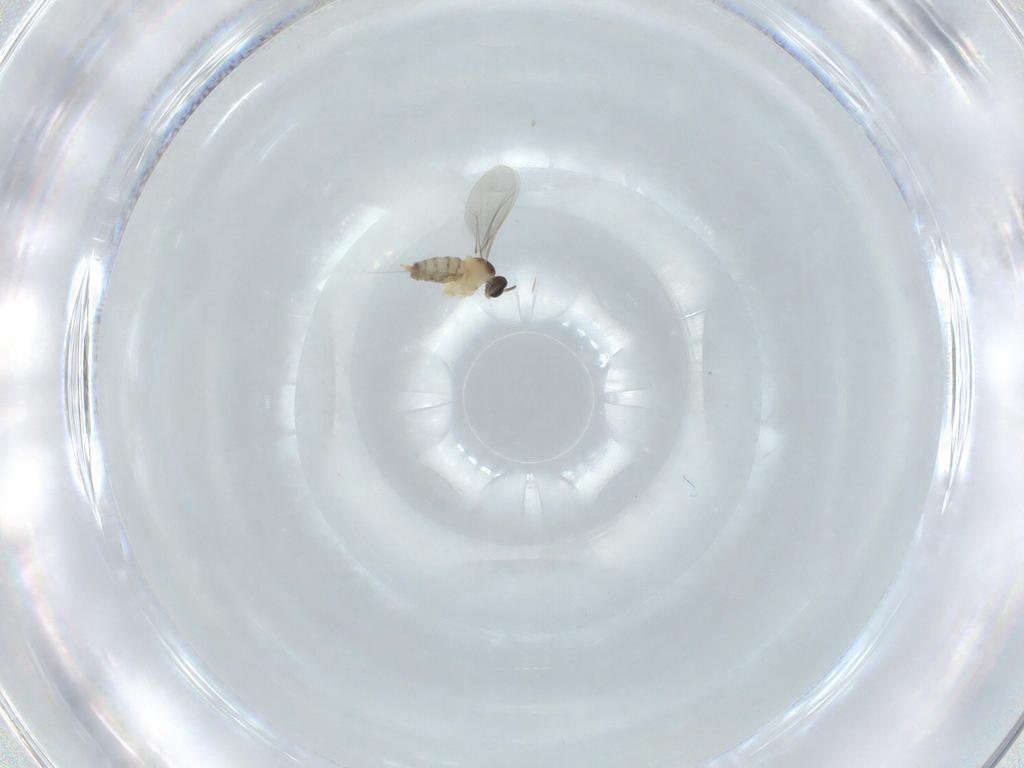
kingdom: Animalia
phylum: Arthropoda
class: Insecta
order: Diptera
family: Cecidomyiidae
